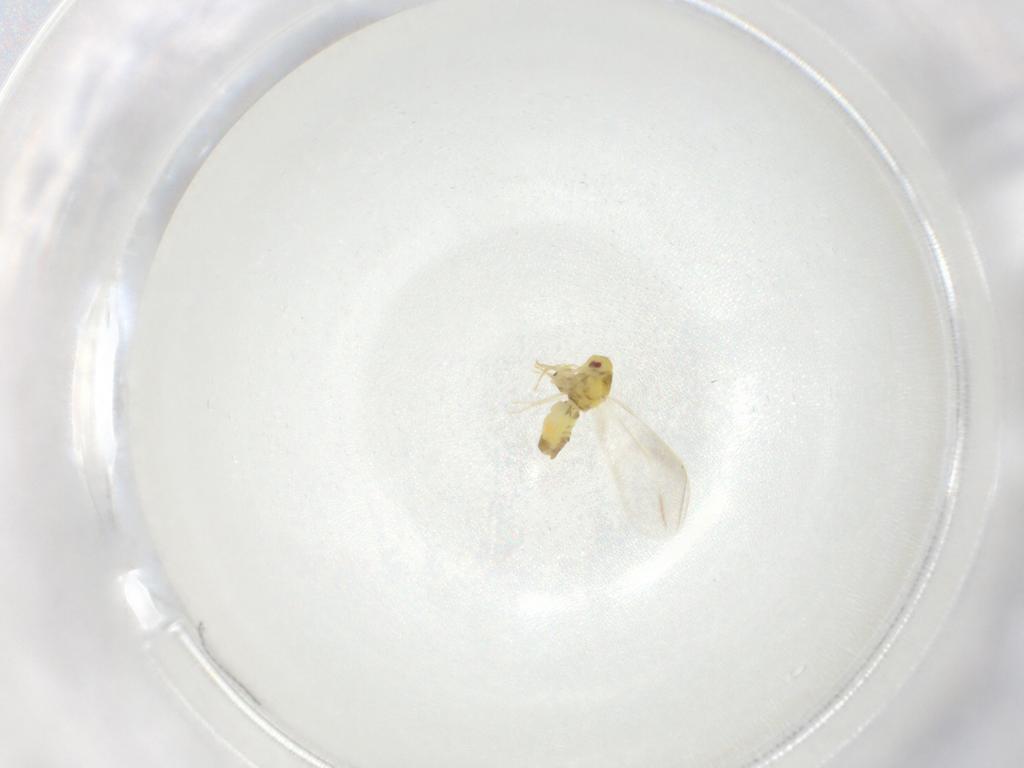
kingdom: Animalia
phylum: Arthropoda
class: Insecta
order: Hemiptera
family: Aleyrodidae
